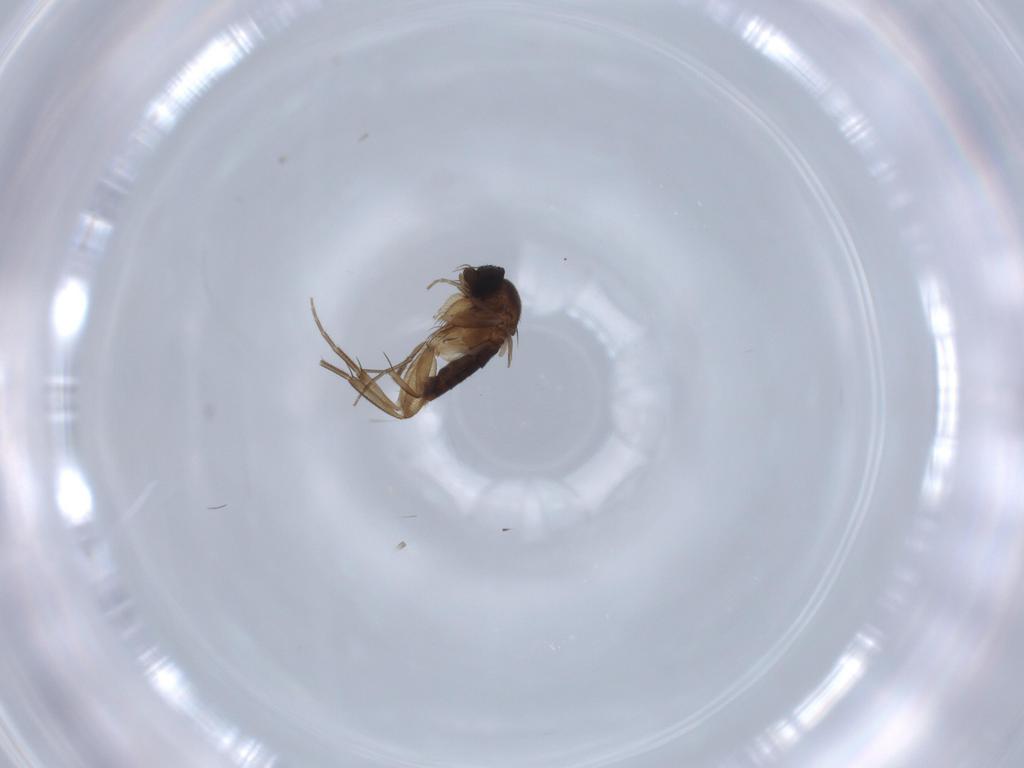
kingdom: Animalia
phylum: Arthropoda
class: Insecta
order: Diptera
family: Phoridae
